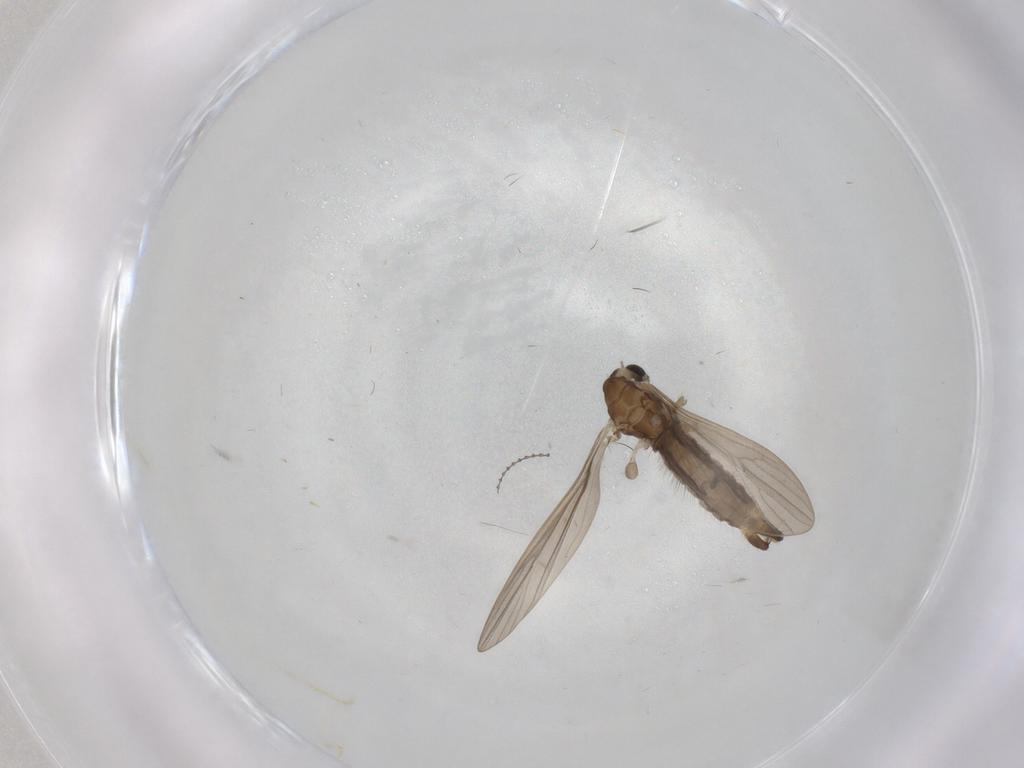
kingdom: Animalia
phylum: Arthropoda
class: Insecta
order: Diptera
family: Limoniidae
